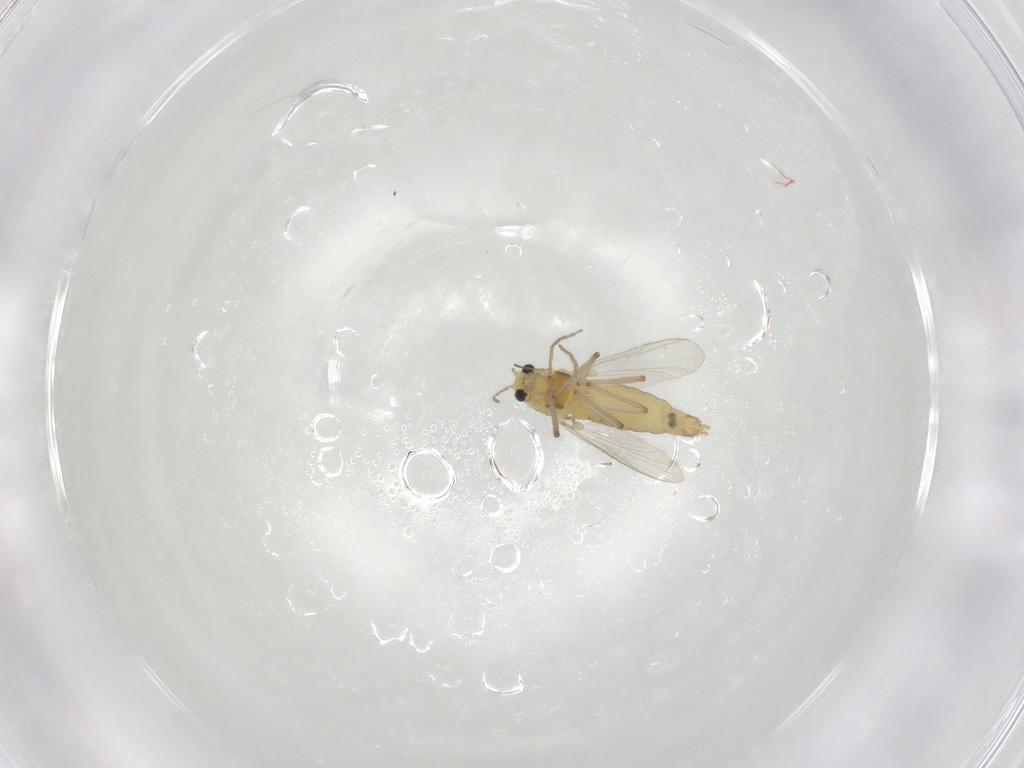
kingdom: Animalia
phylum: Arthropoda
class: Insecta
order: Diptera
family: Chironomidae
